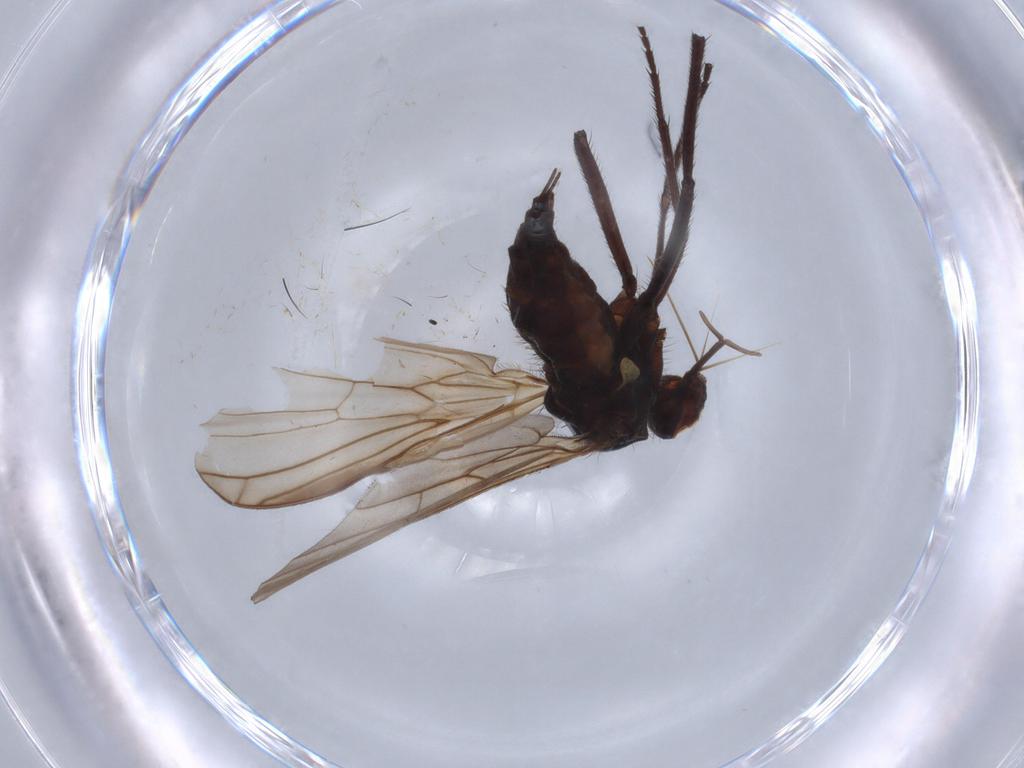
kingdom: Animalia
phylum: Arthropoda
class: Insecta
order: Diptera
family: Empididae
